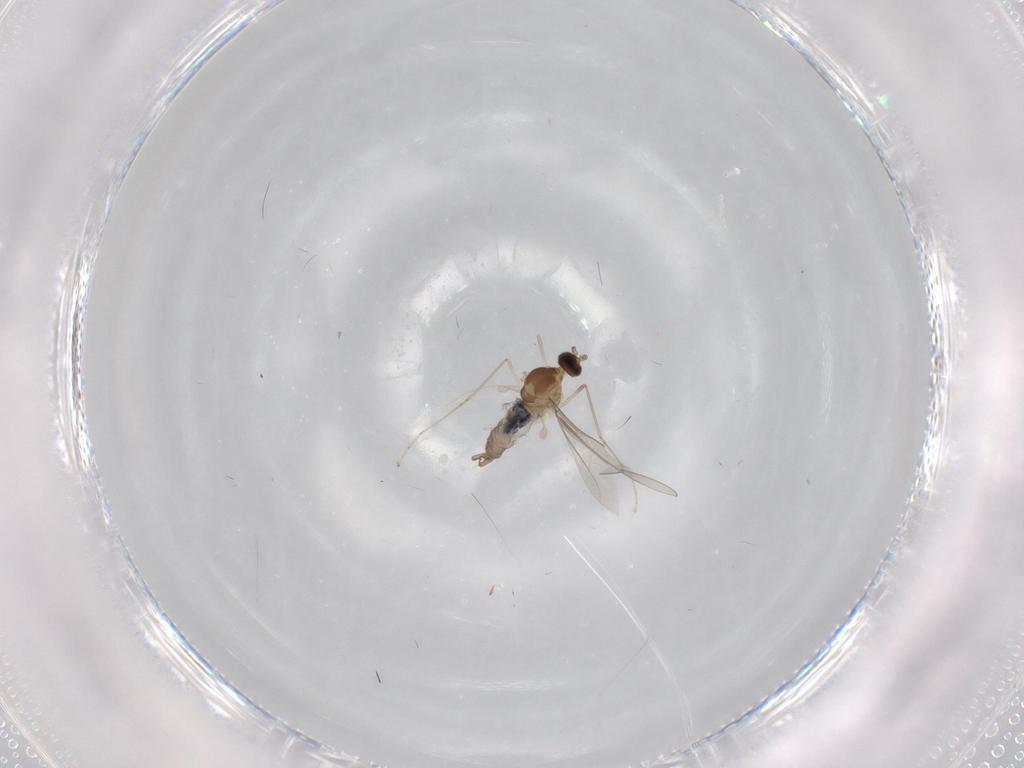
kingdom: Animalia
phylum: Arthropoda
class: Insecta
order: Diptera
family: Cecidomyiidae
